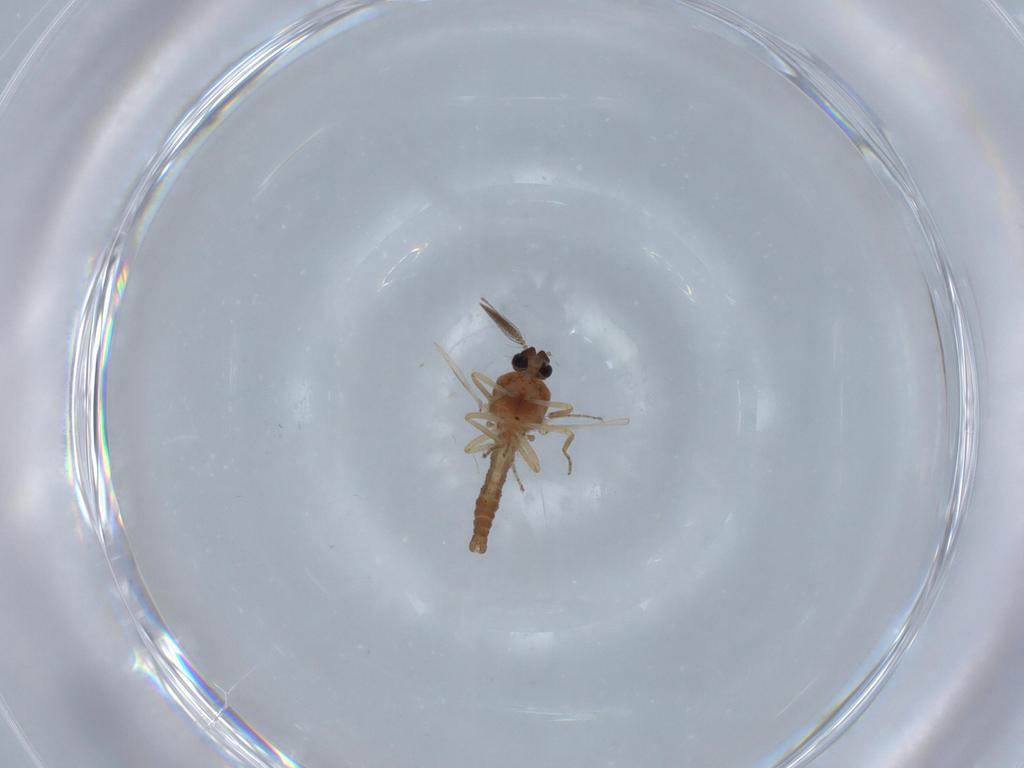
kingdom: Animalia
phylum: Arthropoda
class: Insecta
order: Diptera
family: Ceratopogonidae
